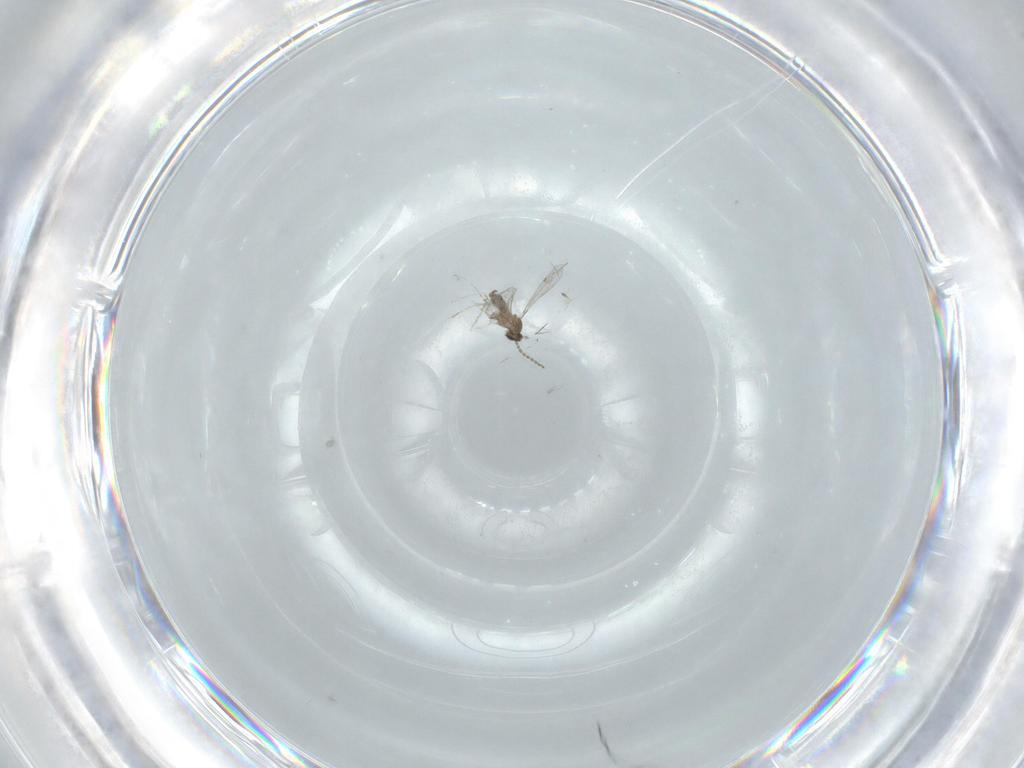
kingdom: Animalia
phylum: Arthropoda
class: Insecta
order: Diptera
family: Cecidomyiidae
